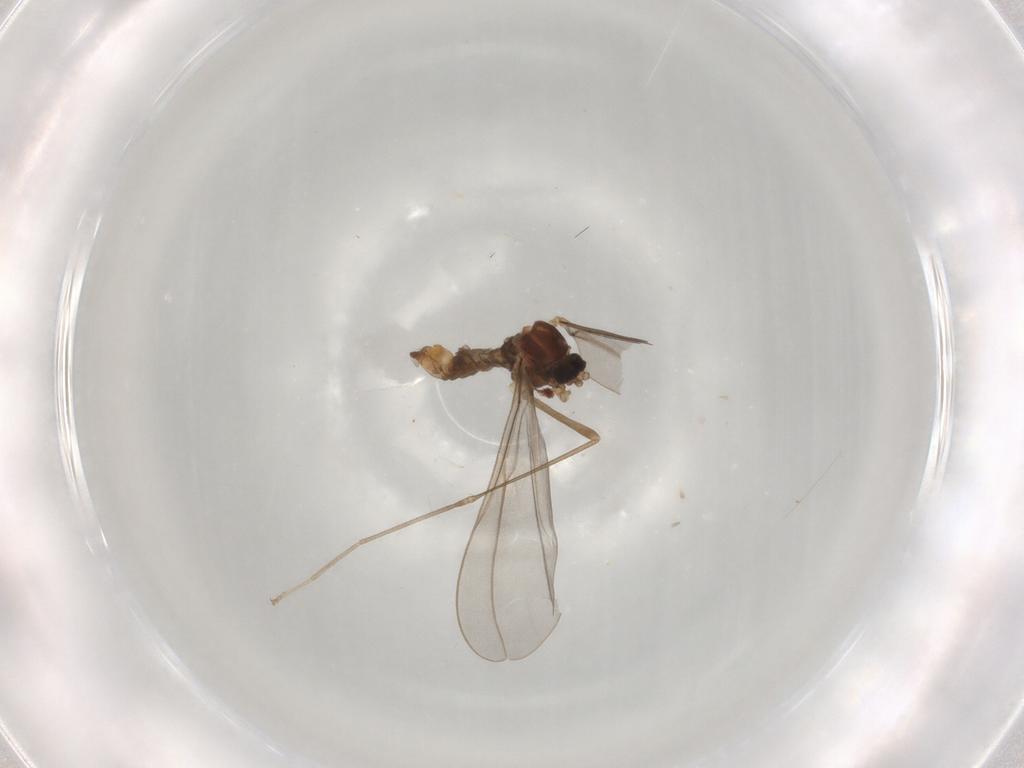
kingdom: Animalia
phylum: Arthropoda
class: Insecta
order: Diptera
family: Cecidomyiidae
